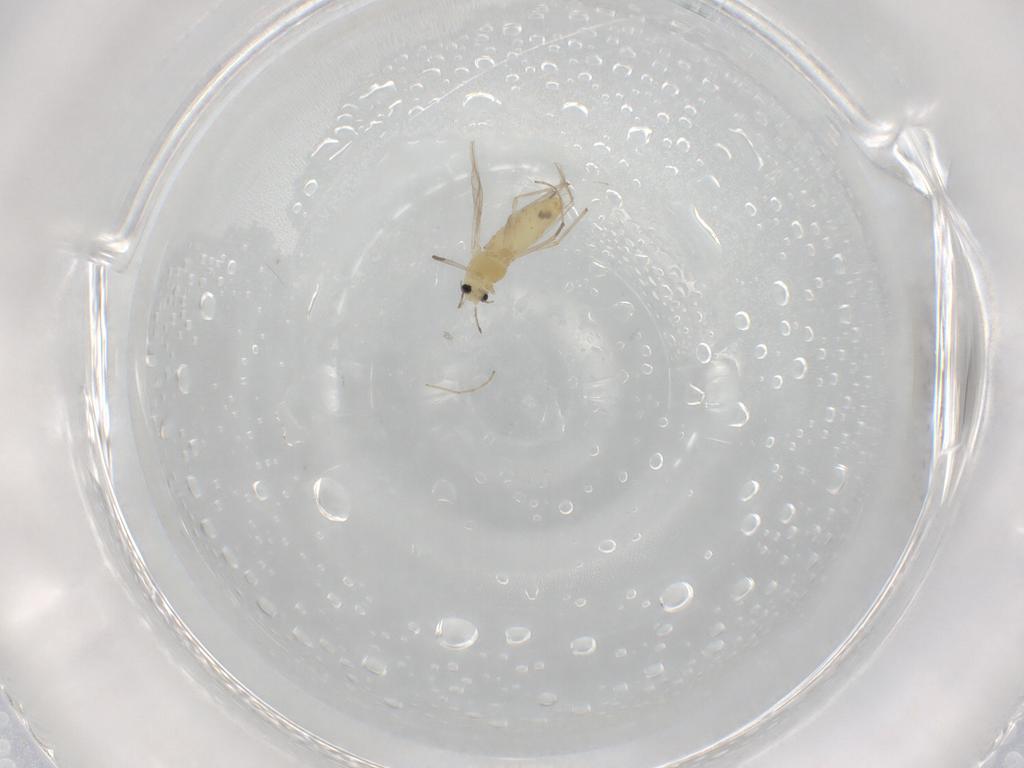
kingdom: Animalia
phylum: Arthropoda
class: Insecta
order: Diptera
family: Chironomidae
